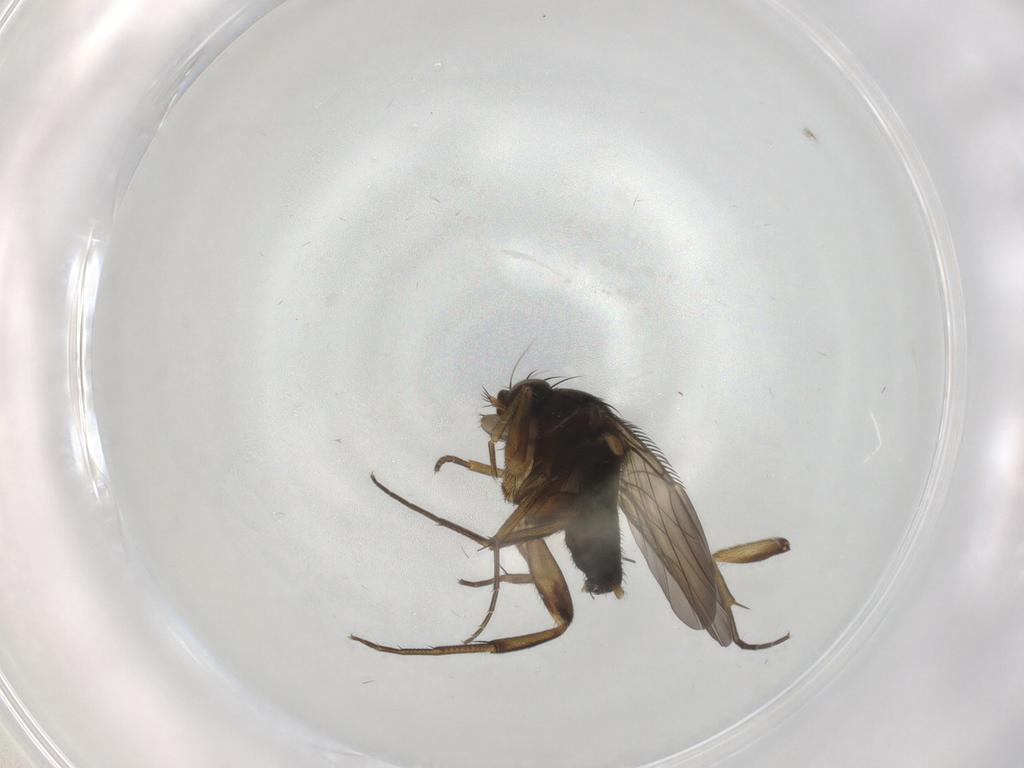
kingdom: Animalia
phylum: Arthropoda
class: Insecta
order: Diptera
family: Phoridae
